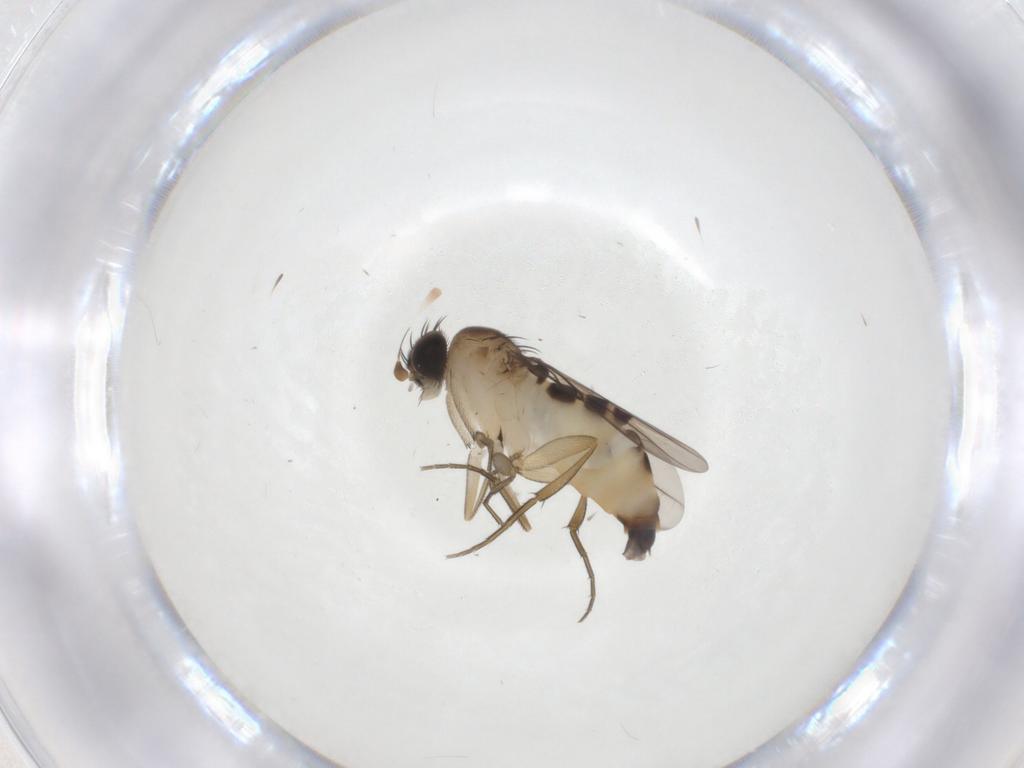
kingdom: Animalia
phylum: Arthropoda
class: Insecta
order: Diptera
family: Phoridae
